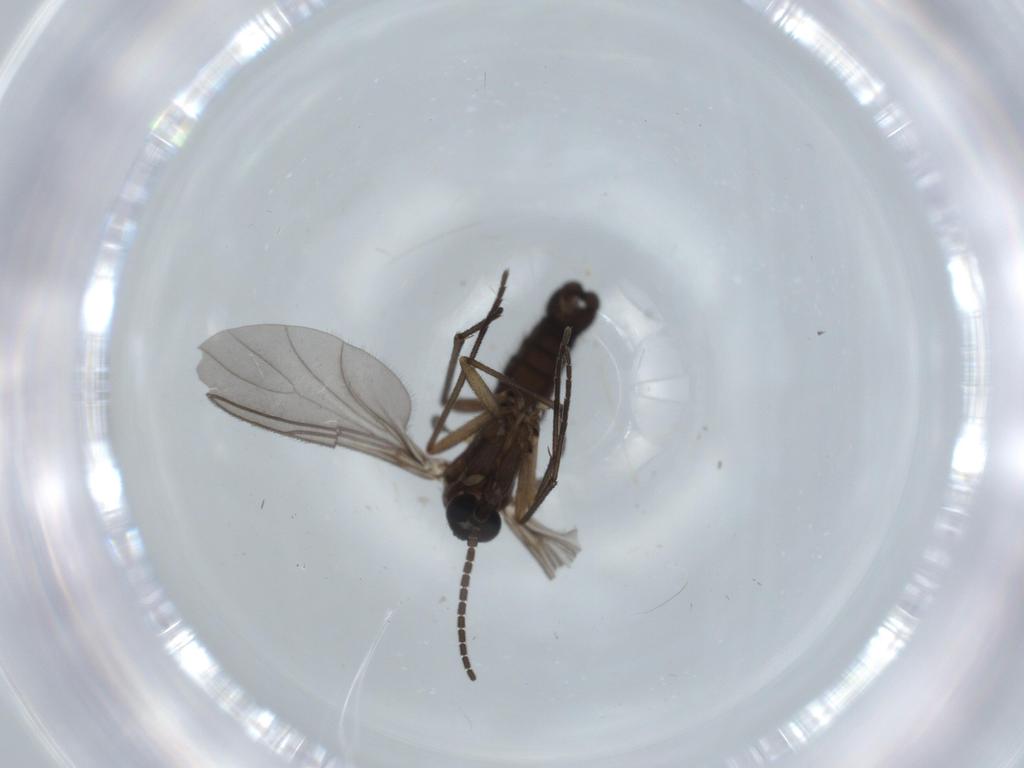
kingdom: Animalia
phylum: Arthropoda
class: Insecta
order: Diptera
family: Sciaridae
